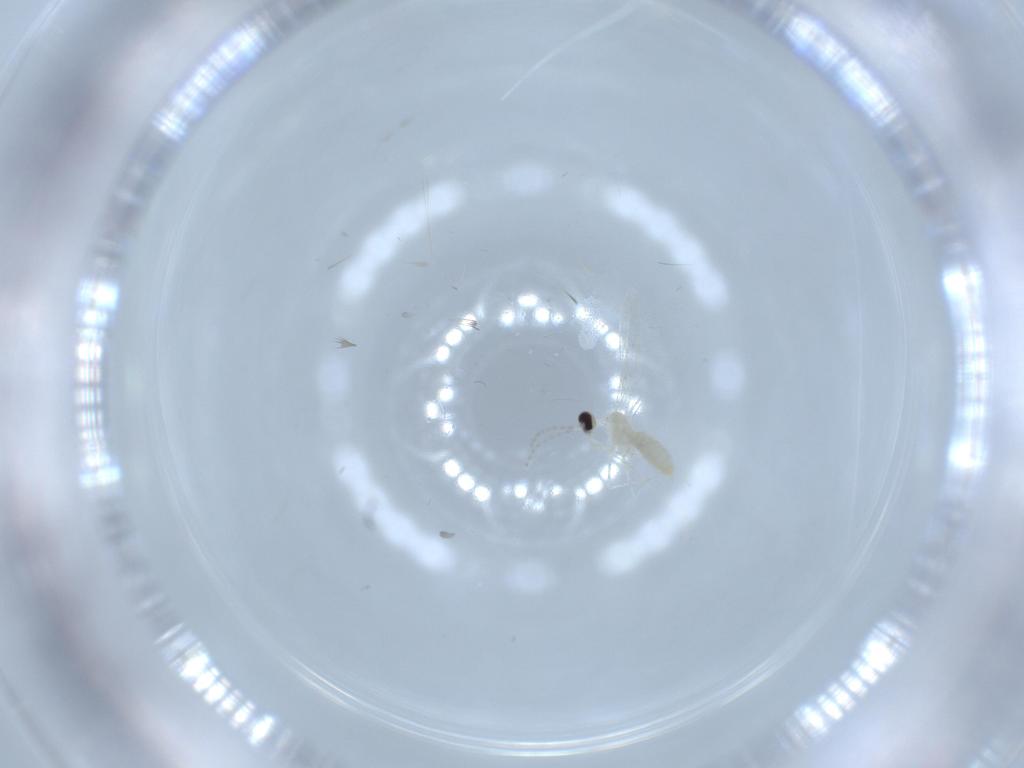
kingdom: Animalia
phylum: Arthropoda
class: Insecta
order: Diptera
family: Cecidomyiidae
